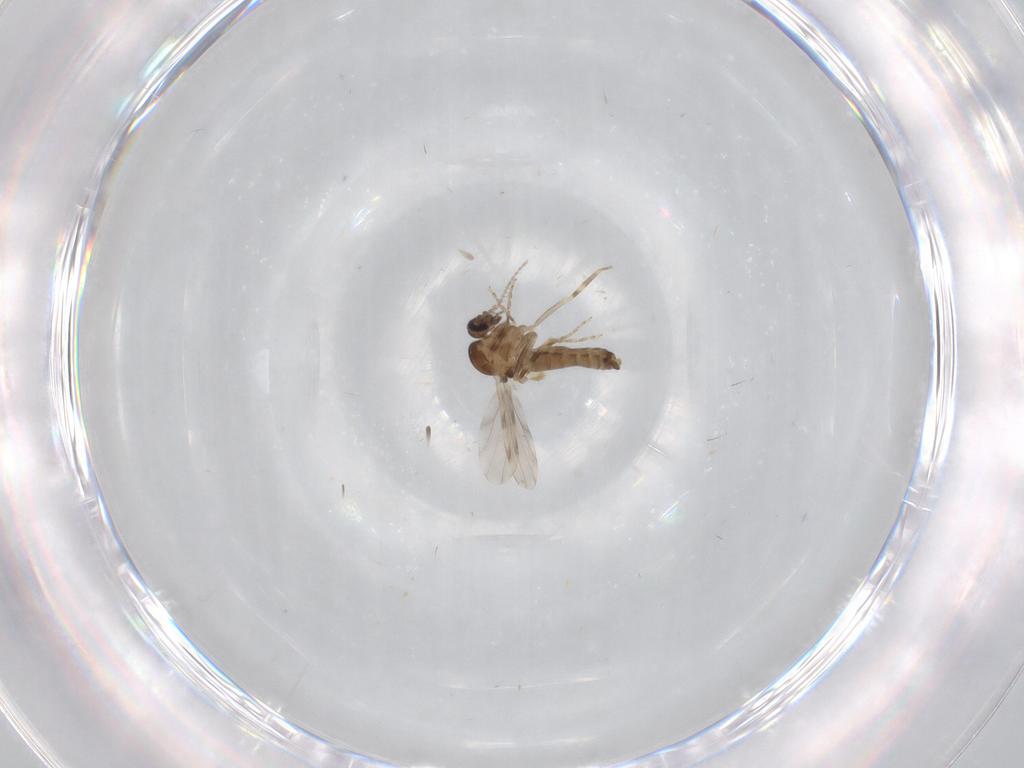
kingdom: Animalia
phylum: Arthropoda
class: Insecta
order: Diptera
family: Ceratopogonidae
